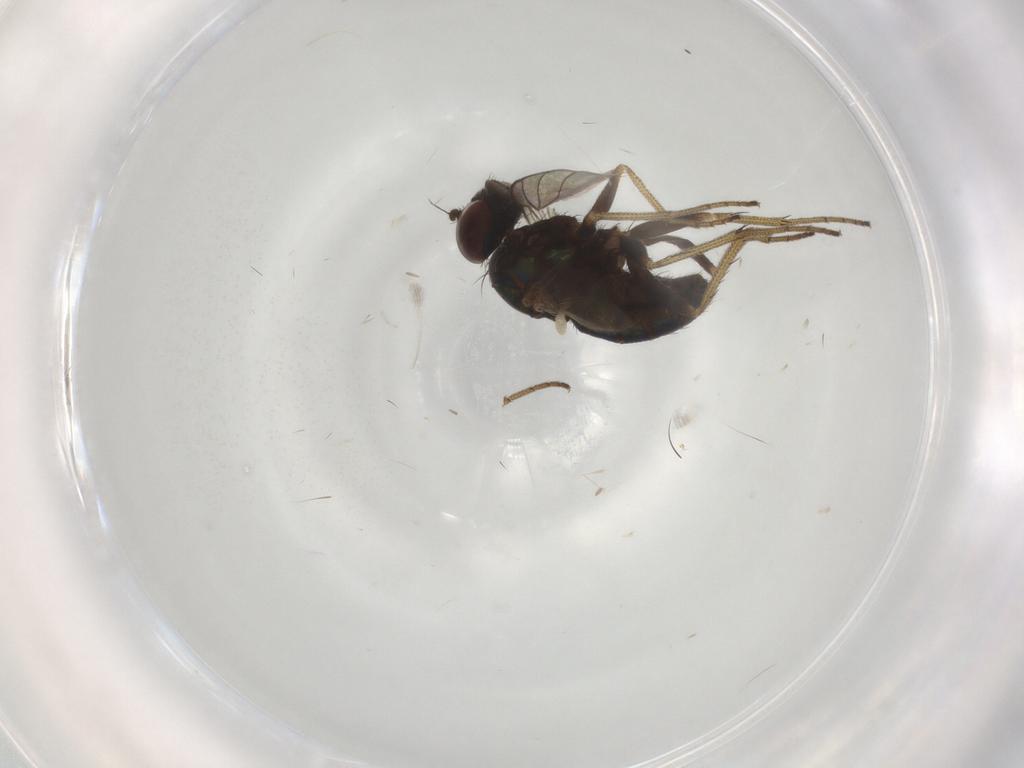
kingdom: Animalia
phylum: Arthropoda
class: Insecta
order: Diptera
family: Dolichopodidae
